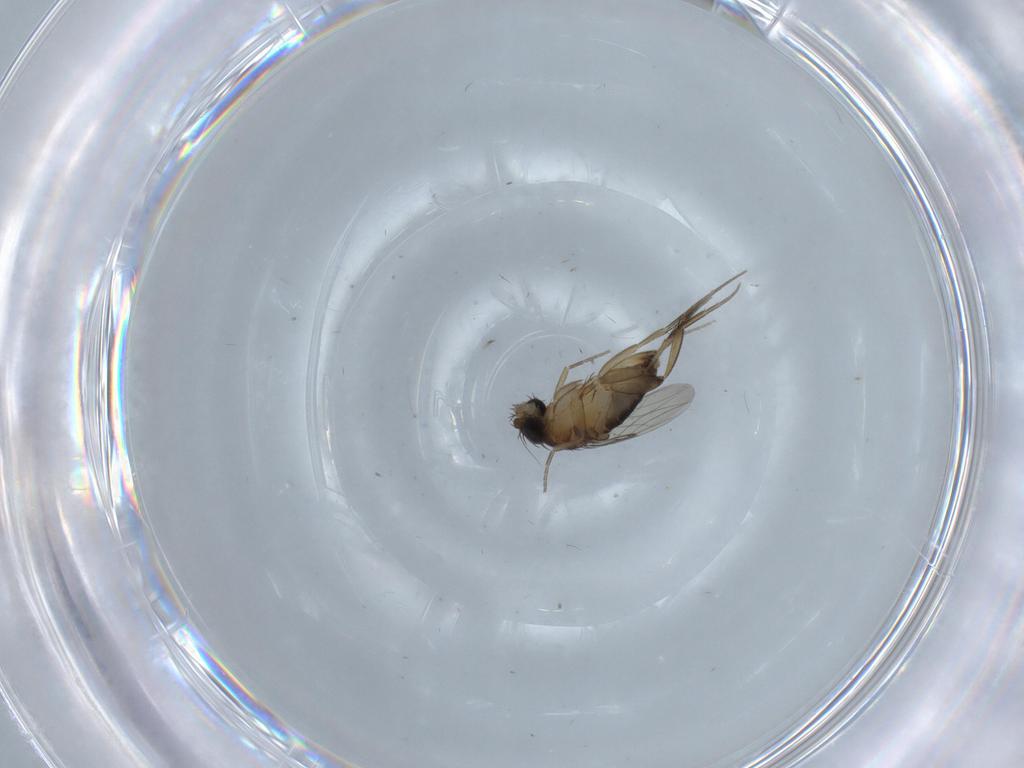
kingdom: Animalia
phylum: Arthropoda
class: Insecta
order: Diptera
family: Phoridae
